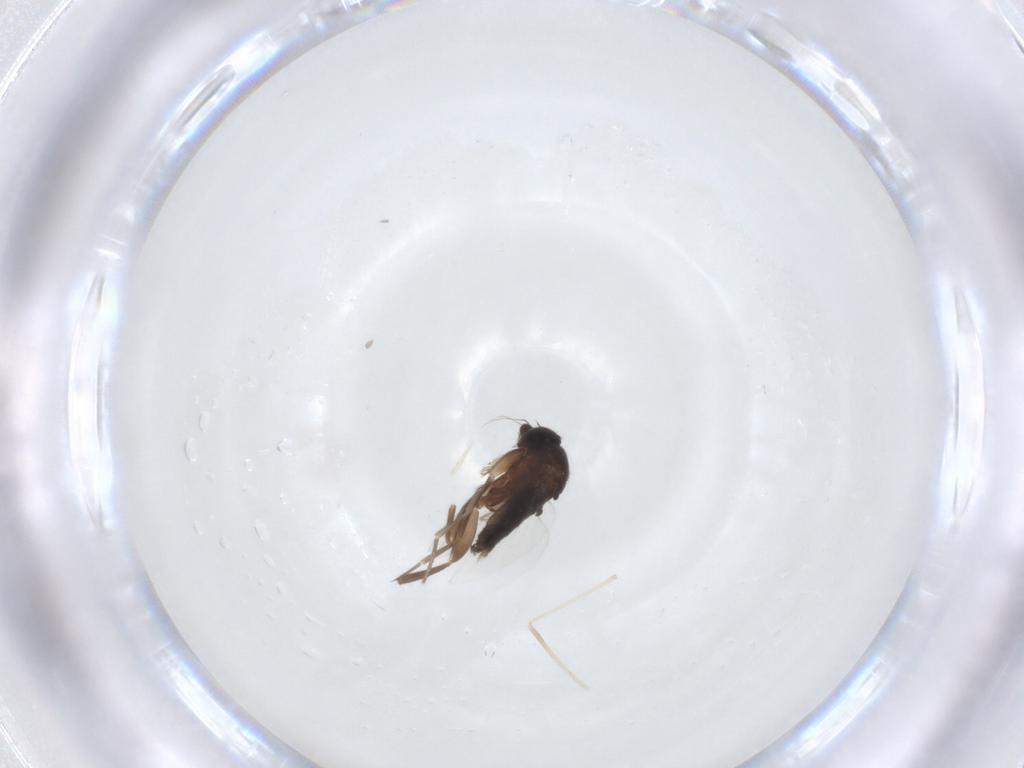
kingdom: Animalia
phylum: Arthropoda
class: Insecta
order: Diptera
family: Phoridae
